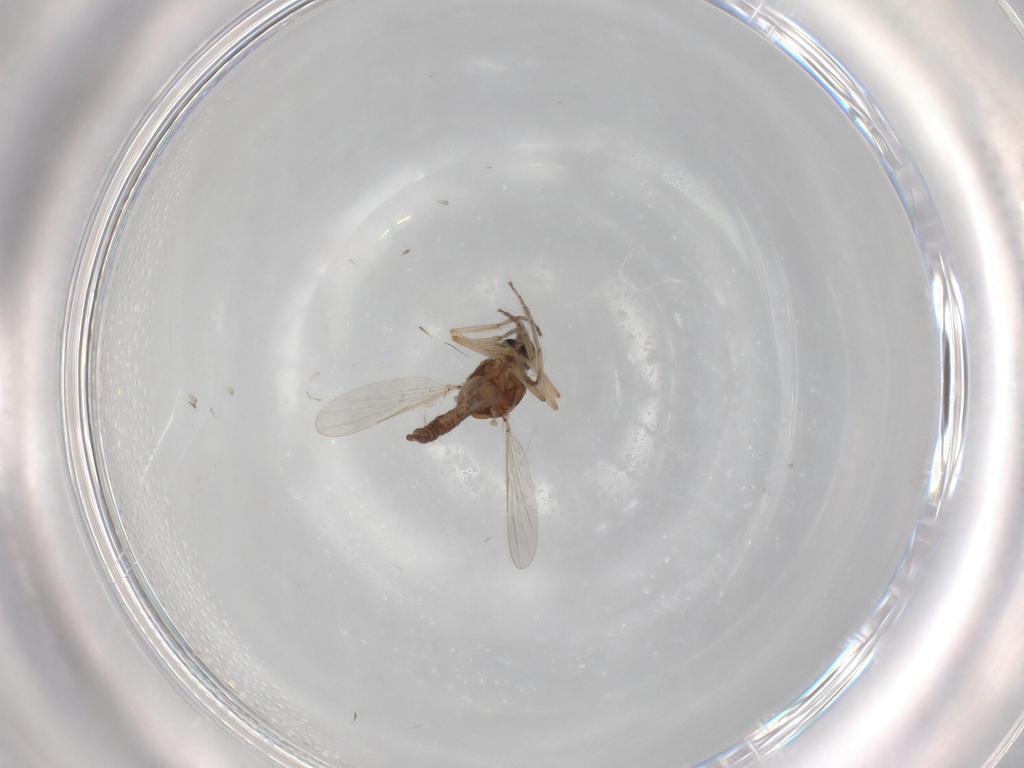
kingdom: Animalia
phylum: Arthropoda
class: Insecta
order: Diptera
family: Ceratopogonidae
